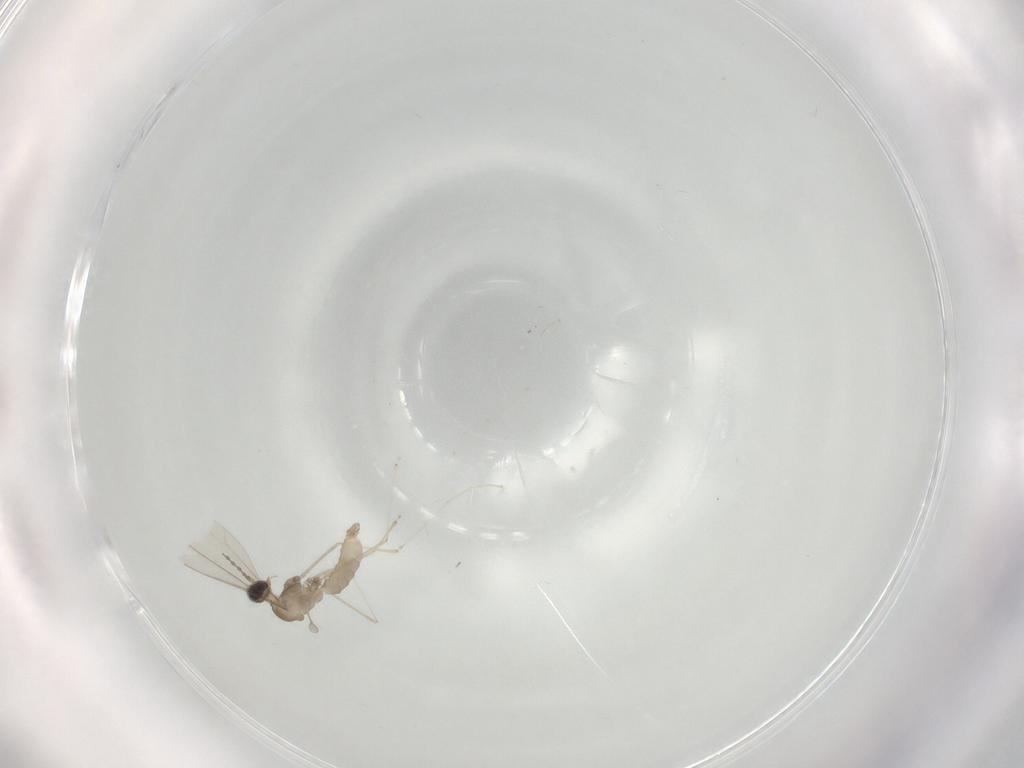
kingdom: Animalia
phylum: Arthropoda
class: Insecta
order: Diptera
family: Cecidomyiidae
